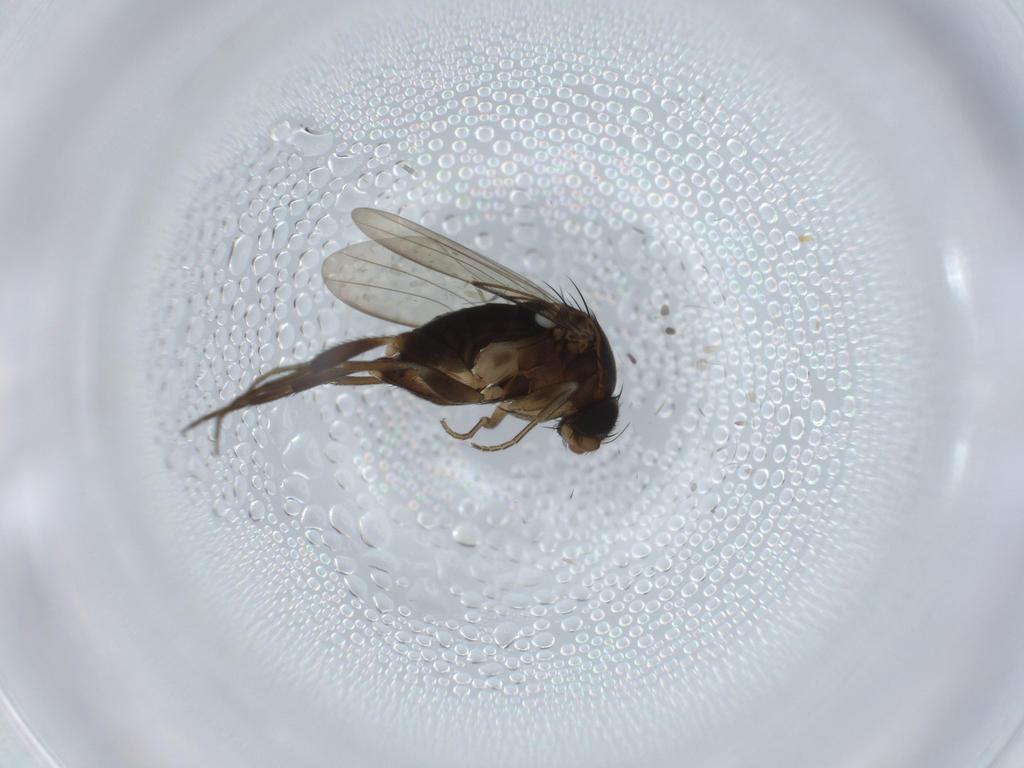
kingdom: Animalia
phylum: Arthropoda
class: Insecta
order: Diptera
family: Phoridae
